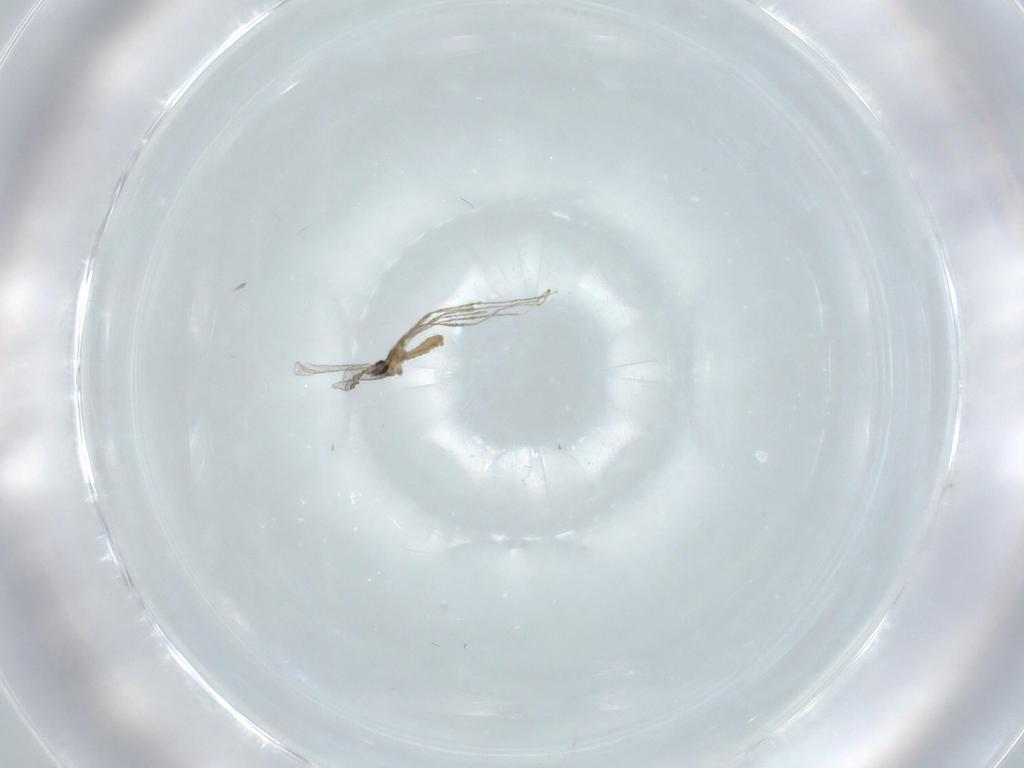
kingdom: Animalia
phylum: Arthropoda
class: Insecta
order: Diptera
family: Cecidomyiidae
